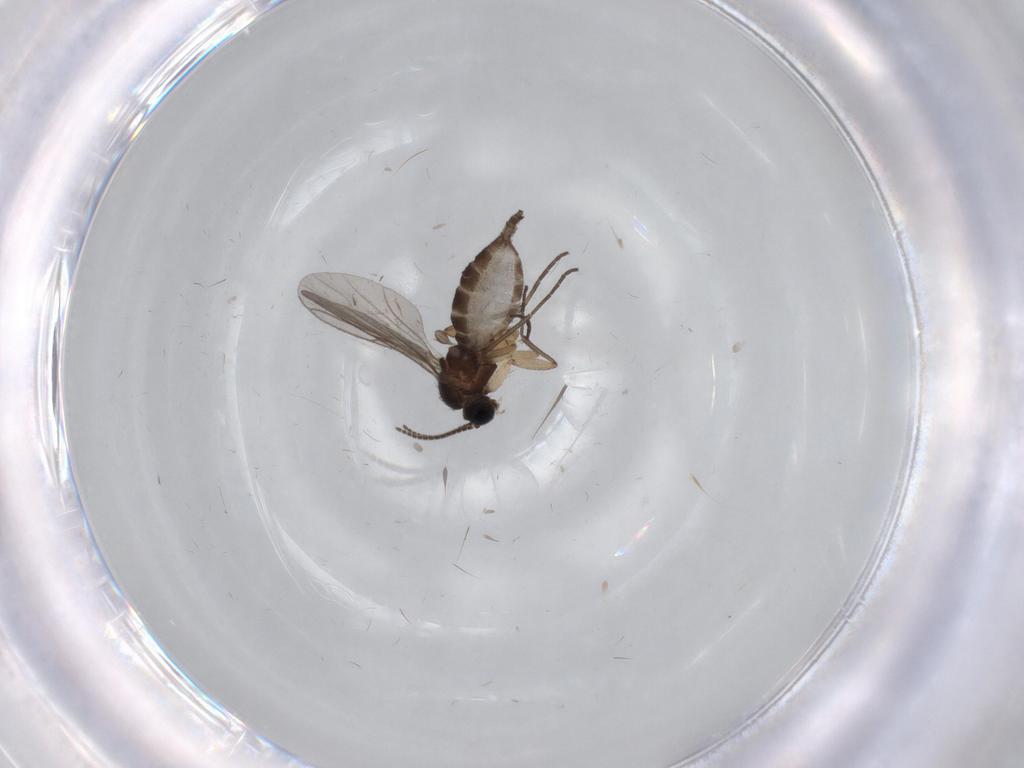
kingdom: Animalia
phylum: Arthropoda
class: Insecta
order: Diptera
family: Sciaridae
